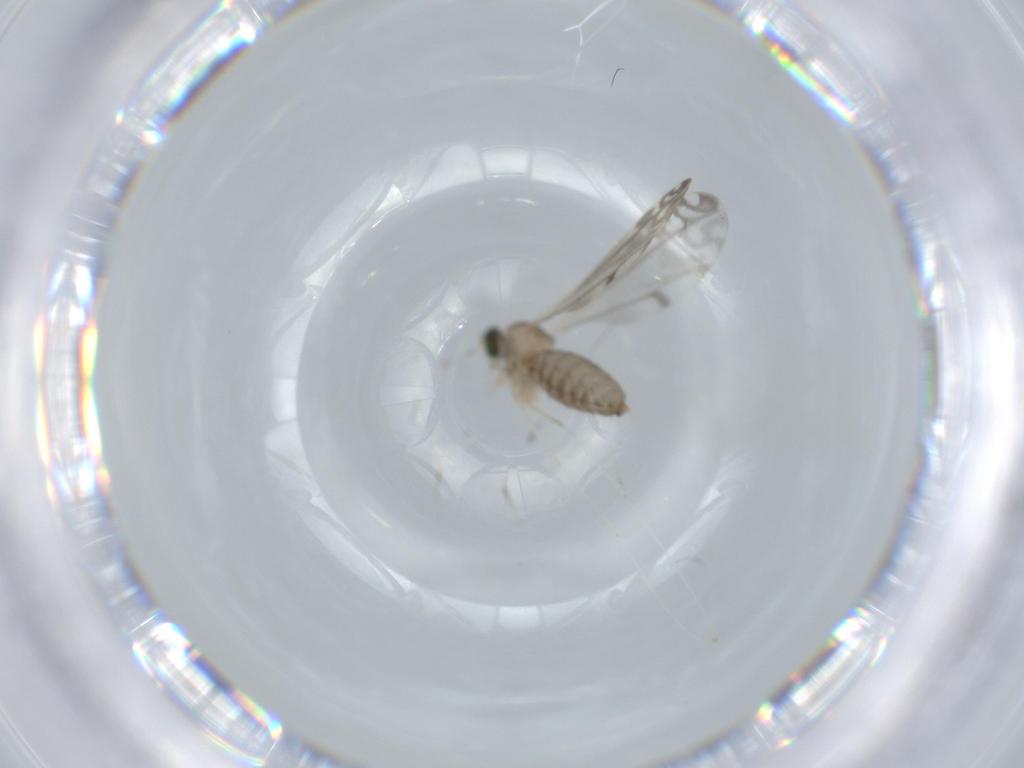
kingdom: Animalia
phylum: Arthropoda
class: Insecta
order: Diptera
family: Cecidomyiidae
